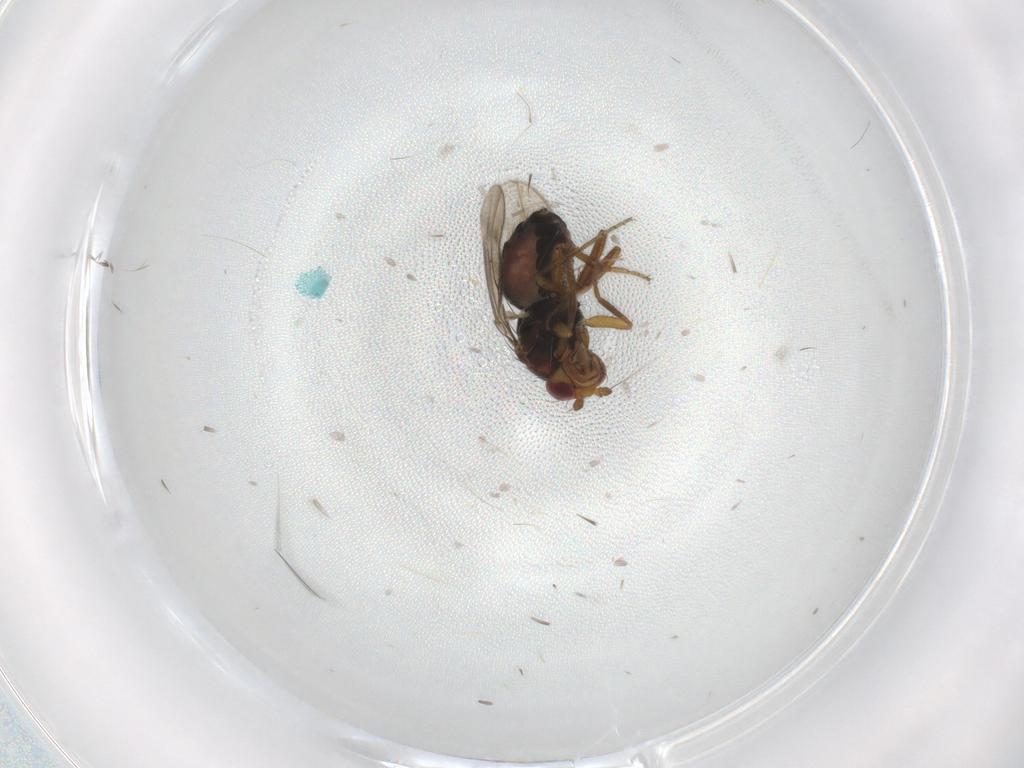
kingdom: Animalia
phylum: Arthropoda
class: Insecta
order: Diptera
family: Sphaeroceridae
